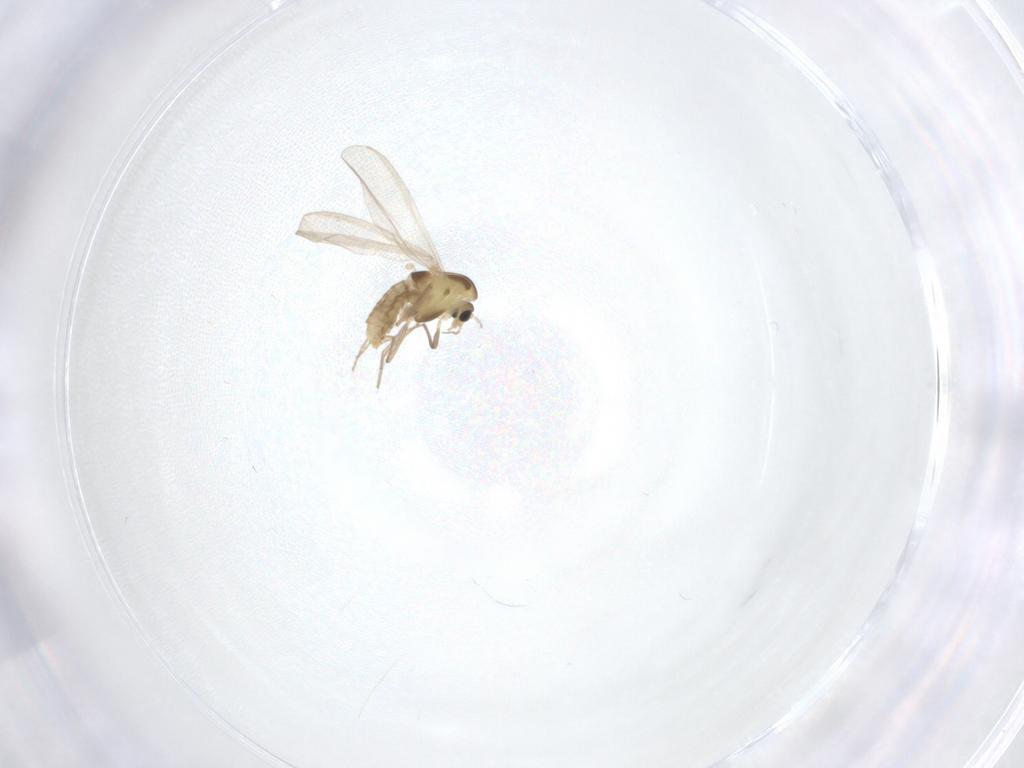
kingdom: Animalia
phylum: Arthropoda
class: Insecta
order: Diptera
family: Chironomidae
